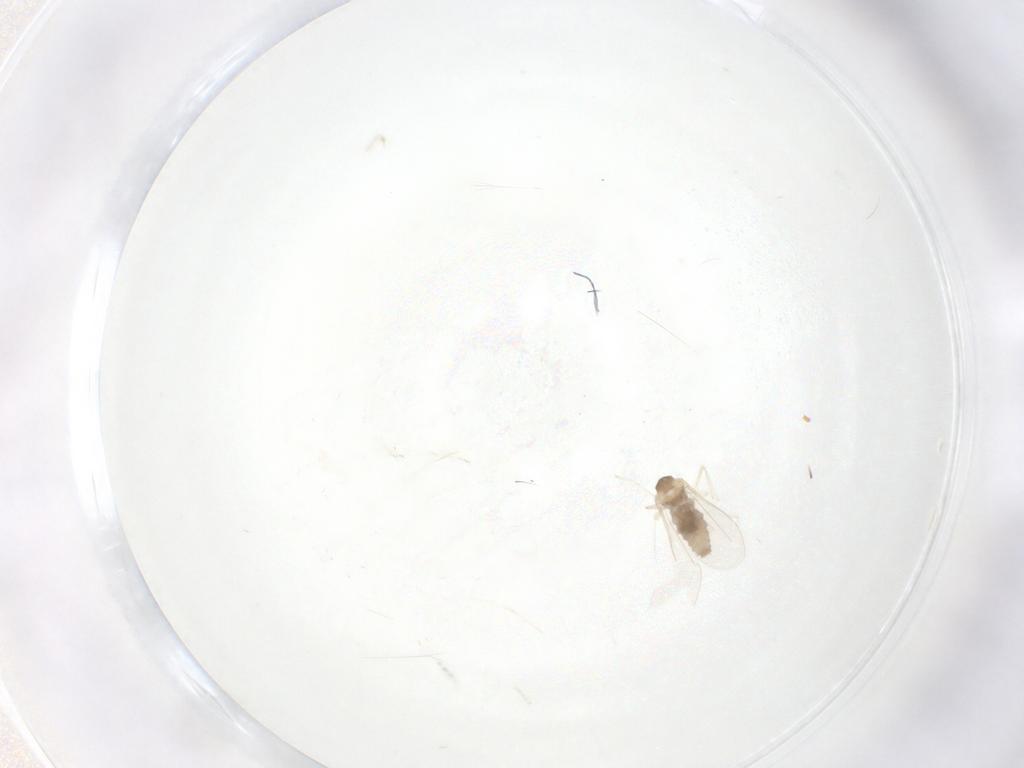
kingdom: Animalia
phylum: Arthropoda
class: Insecta
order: Diptera
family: Cecidomyiidae
